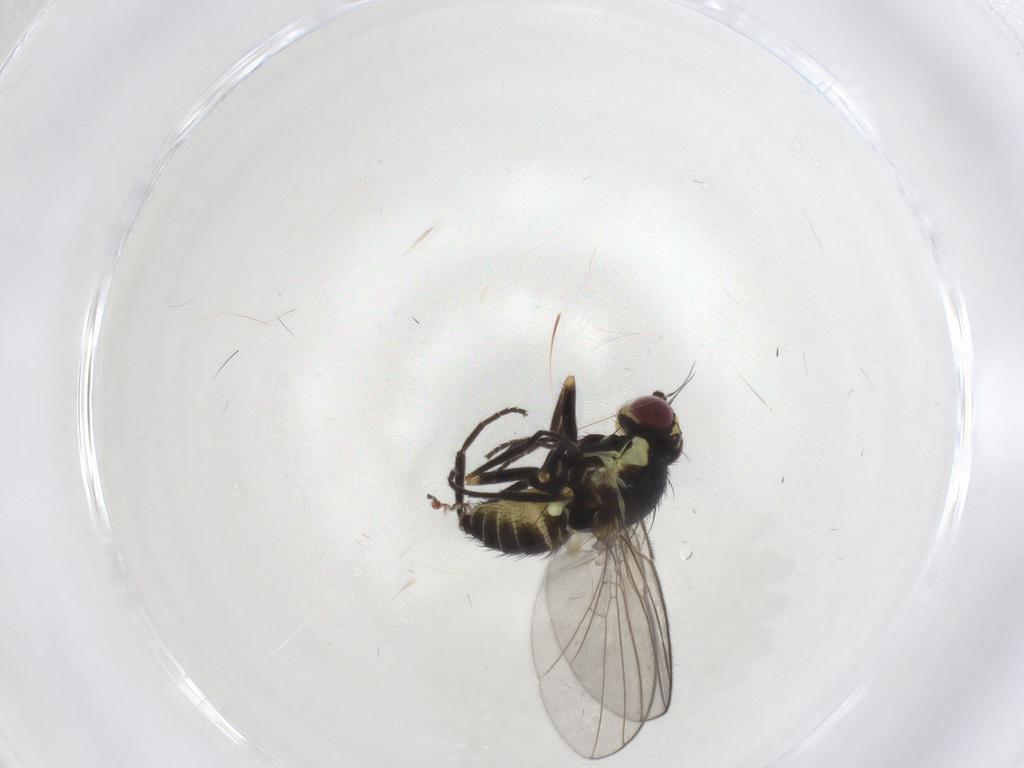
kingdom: Animalia
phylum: Arthropoda
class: Insecta
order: Diptera
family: Agromyzidae
